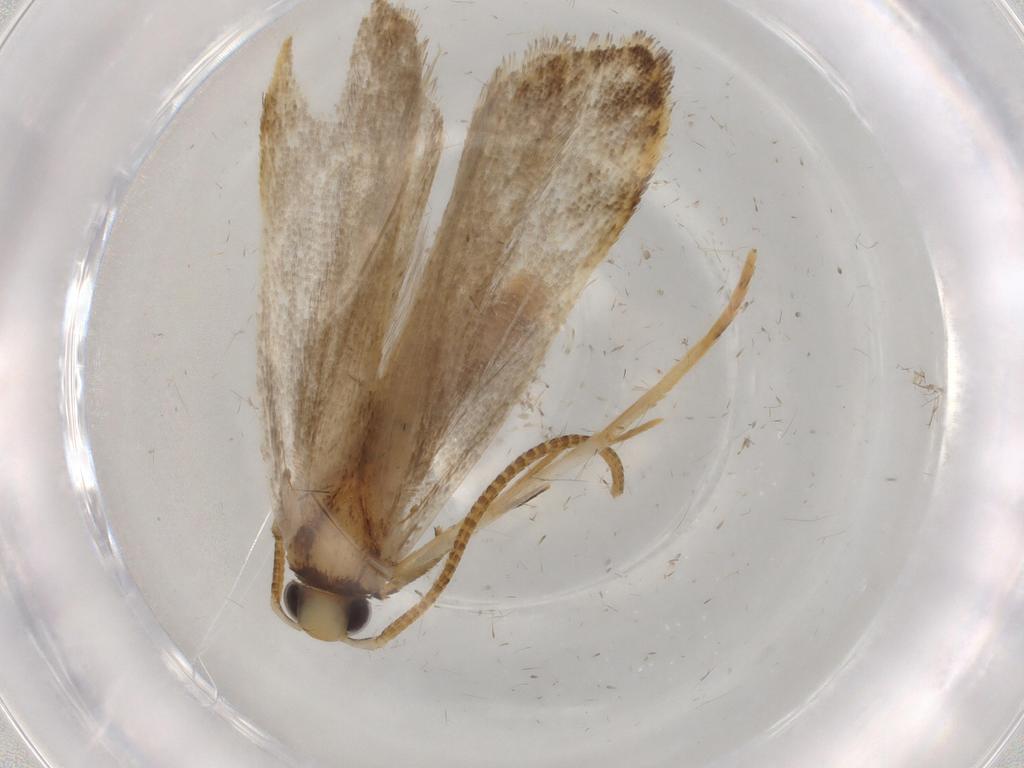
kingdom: Animalia
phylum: Arthropoda
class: Insecta
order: Lepidoptera
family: Autostichidae
